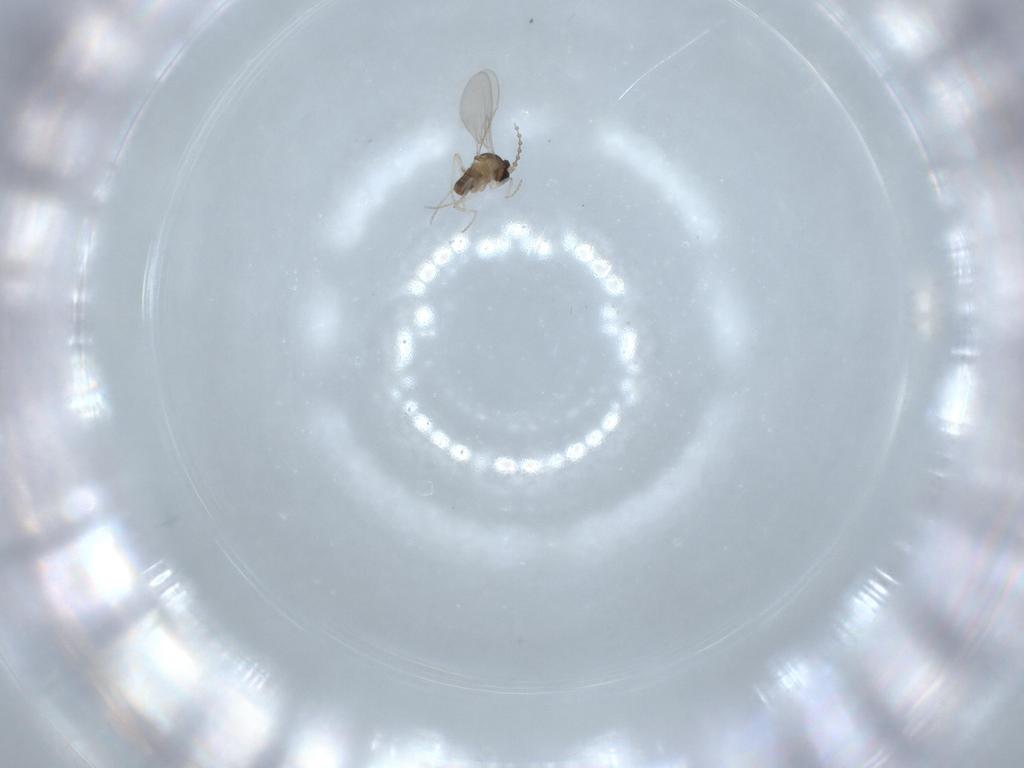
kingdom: Animalia
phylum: Arthropoda
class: Insecta
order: Diptera
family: Cecidomyiidae
